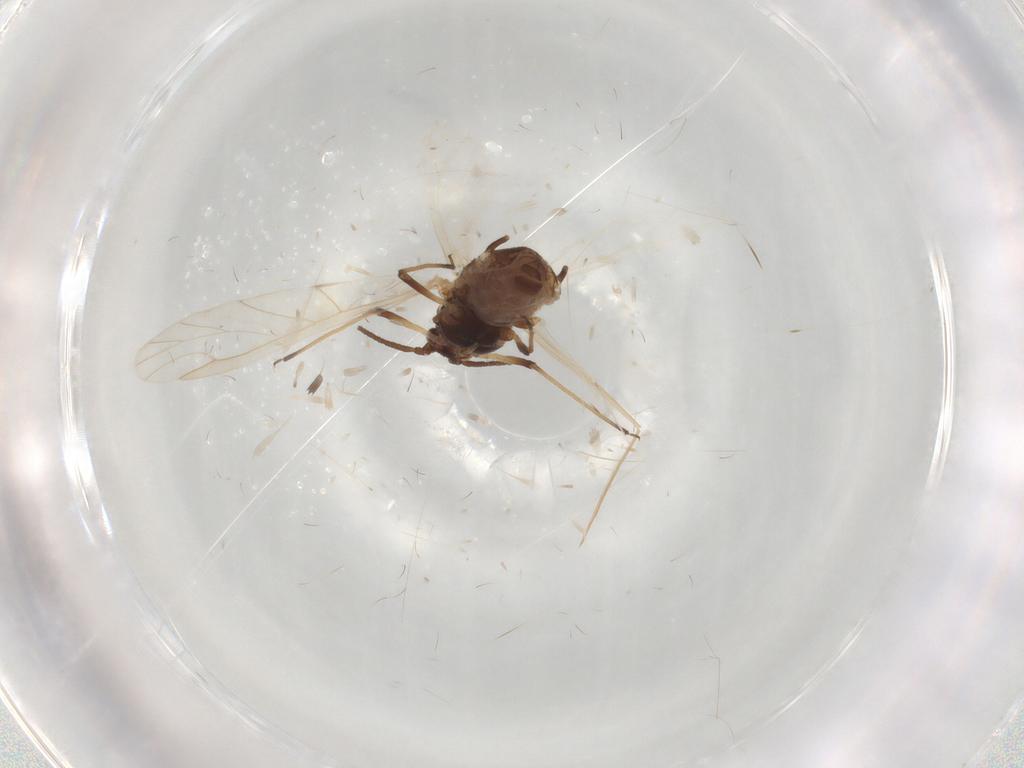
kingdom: Animalia
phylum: Arthropoda
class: Insecta
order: Hemiptera
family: Aphididae
